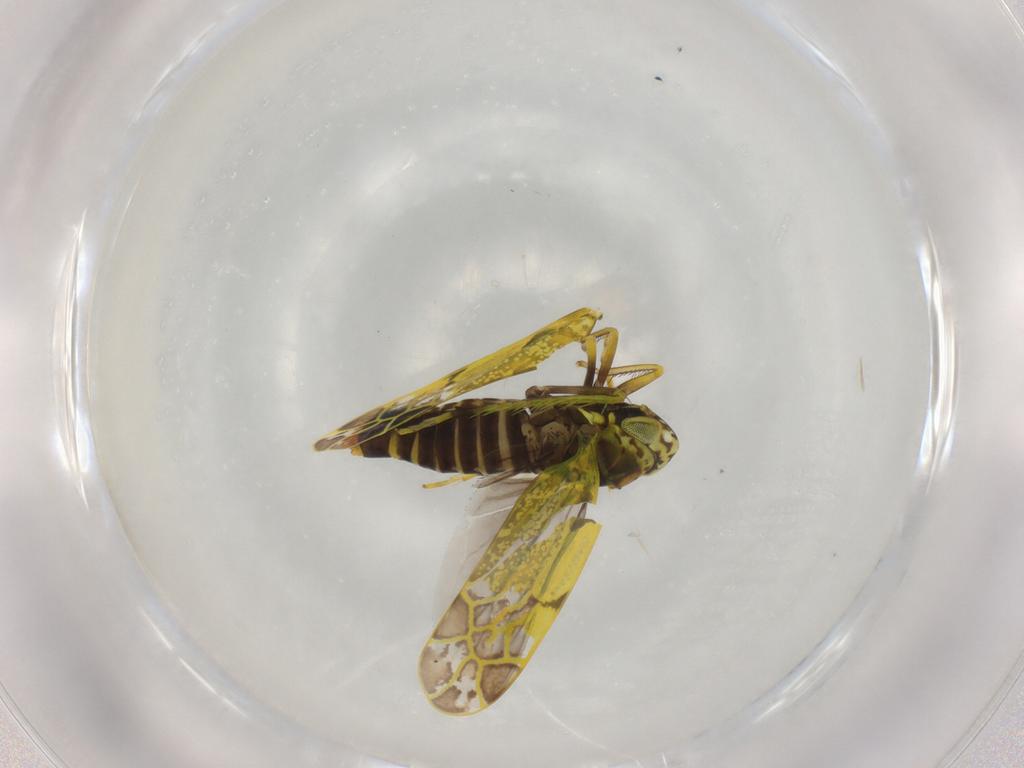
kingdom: Animalia
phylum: Arthropoda
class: Insecta
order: Hemiptera
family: Cicadellidae
